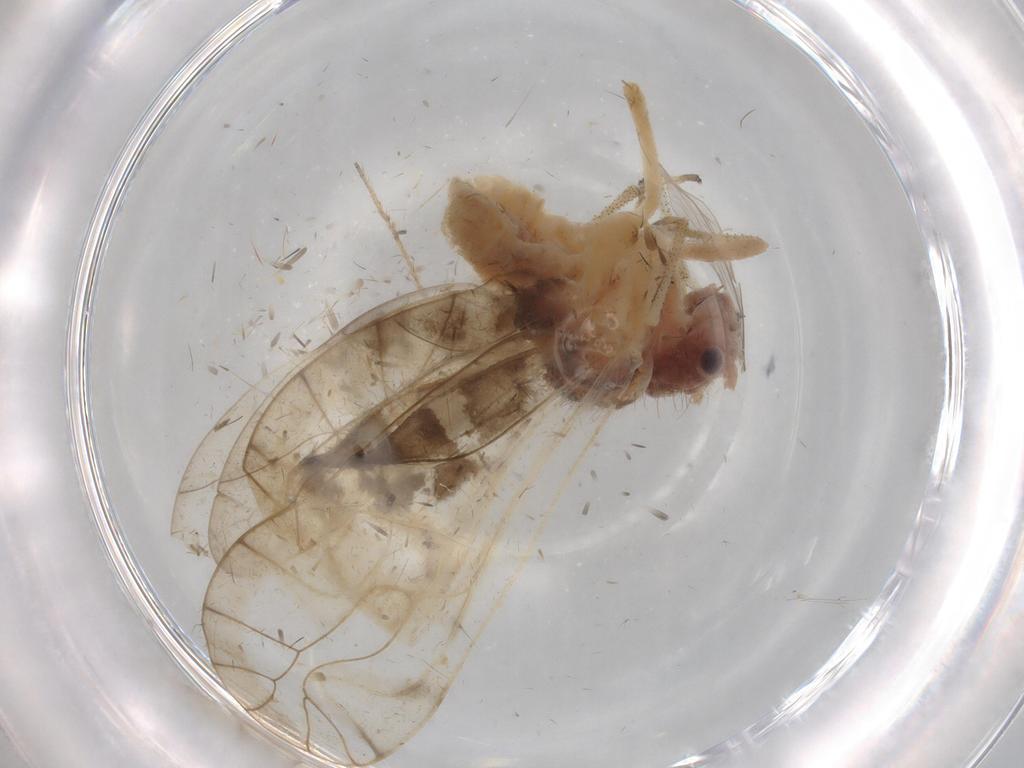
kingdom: Animalia
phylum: Arthropoda
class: Insecta
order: Psocodea
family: Amphipsocidae
